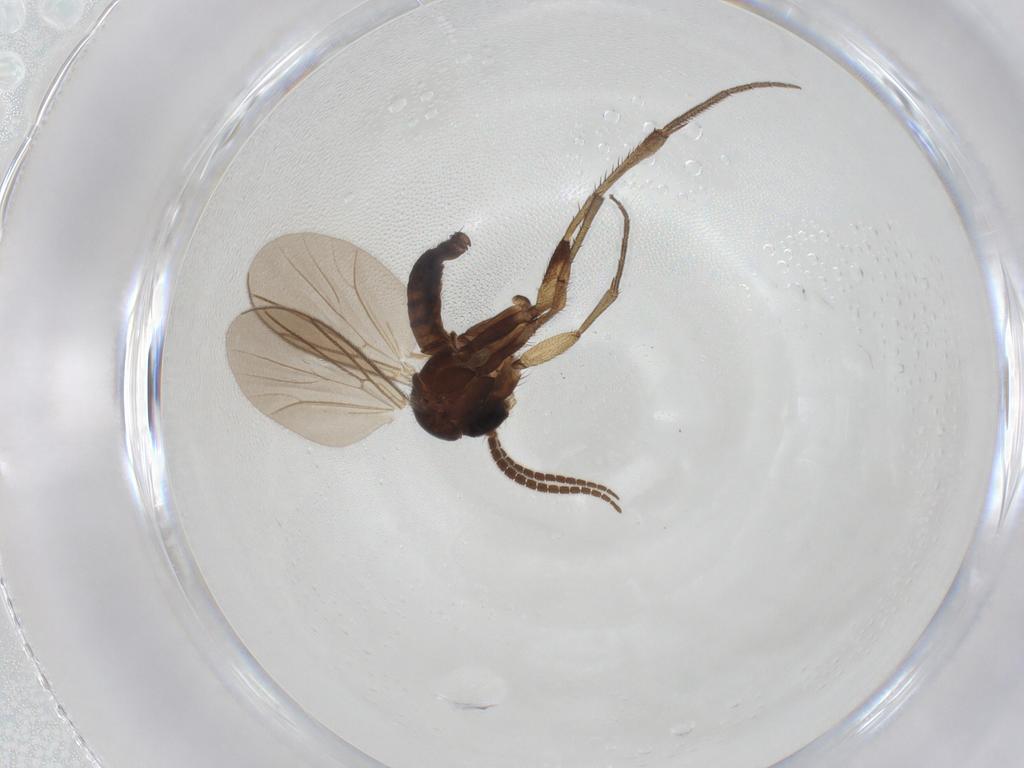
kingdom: Animalia
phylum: Arthropoda
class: Insecta
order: Diptera
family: Mycetophilidae
